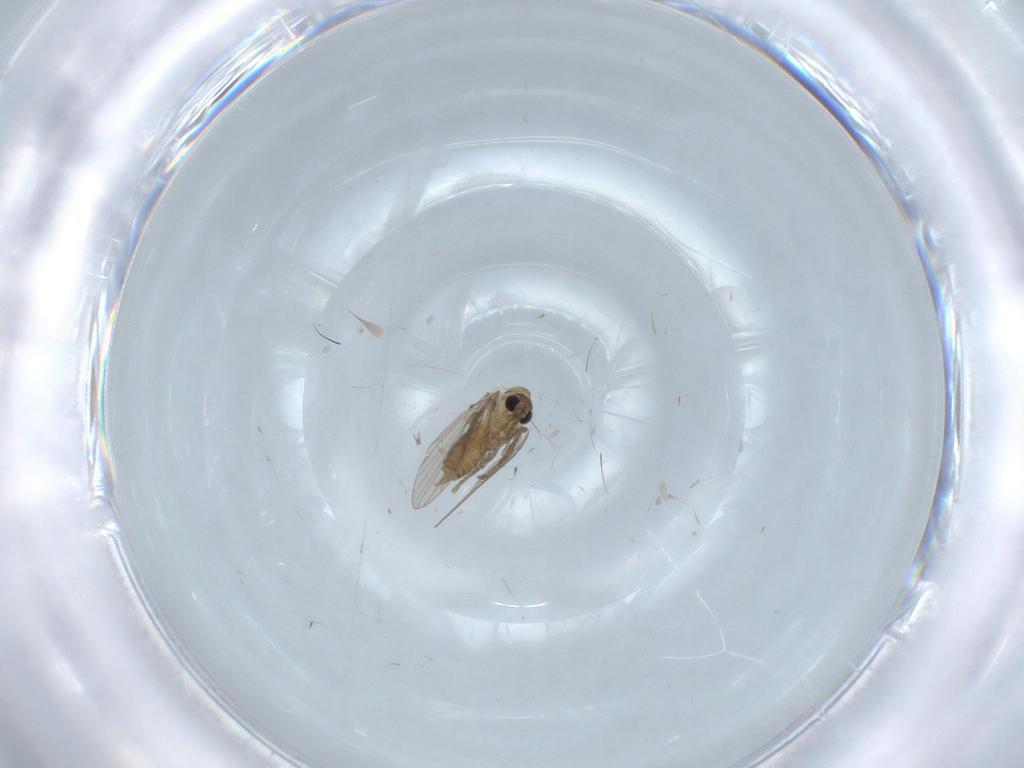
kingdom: Animalia
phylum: Arthropoda
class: Insecta
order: Diptera
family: Psychodidae
